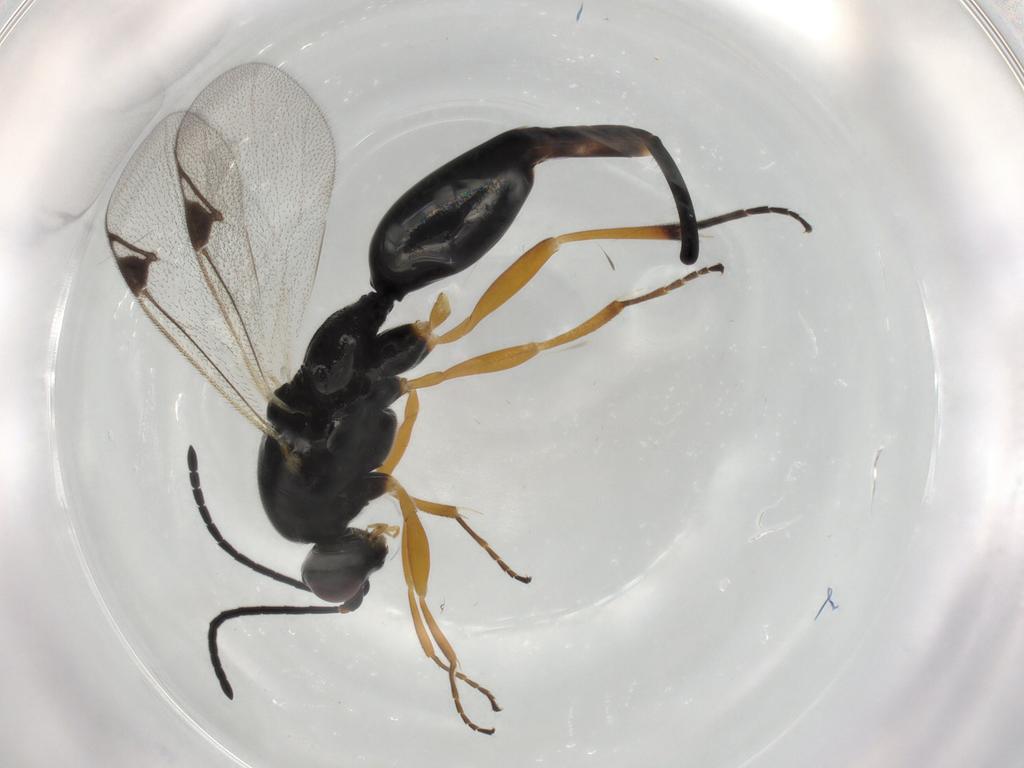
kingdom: Animalia
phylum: Arthropoda
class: Insecta
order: Hymenoptera
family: Proctotrupidae
